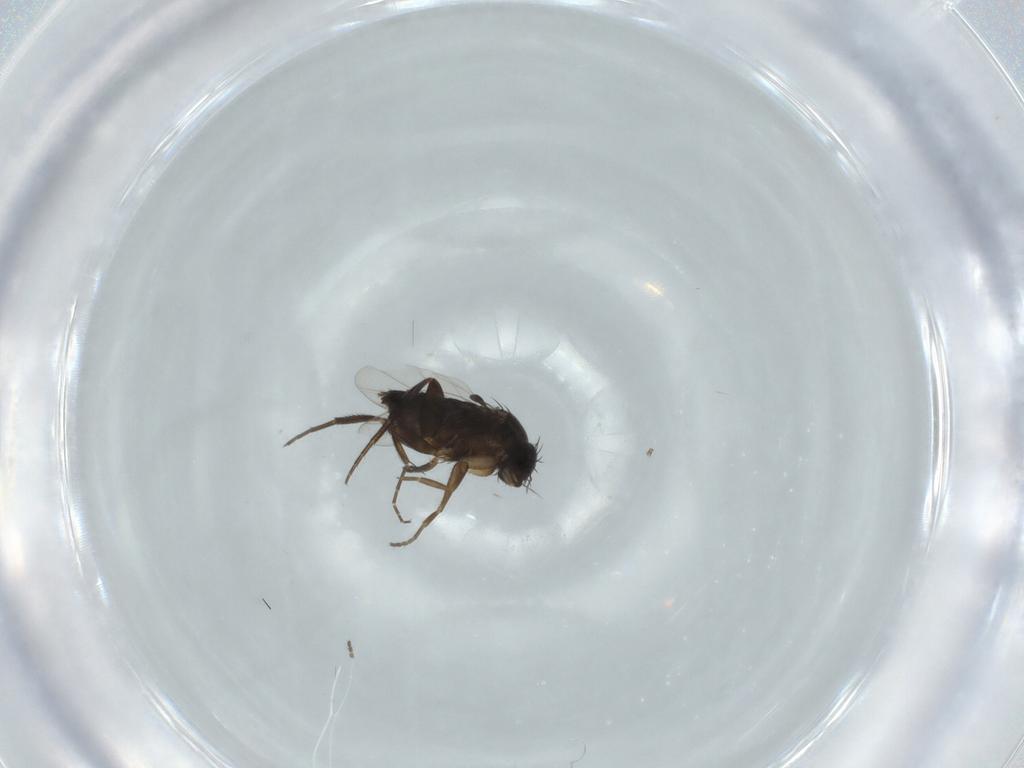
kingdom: Animalia
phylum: Arthropoda
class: Insecta
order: Diptera
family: Phoridae
